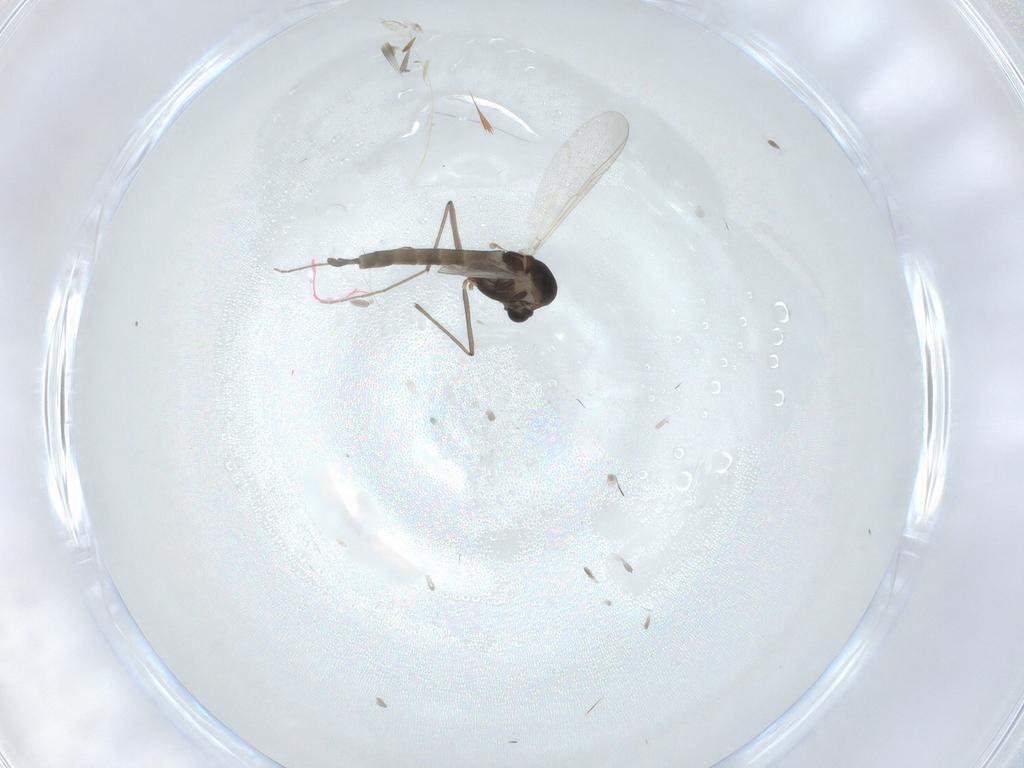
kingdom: Animalia
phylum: Arthropoda
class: Insecta
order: Diptera
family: Chironomidae
